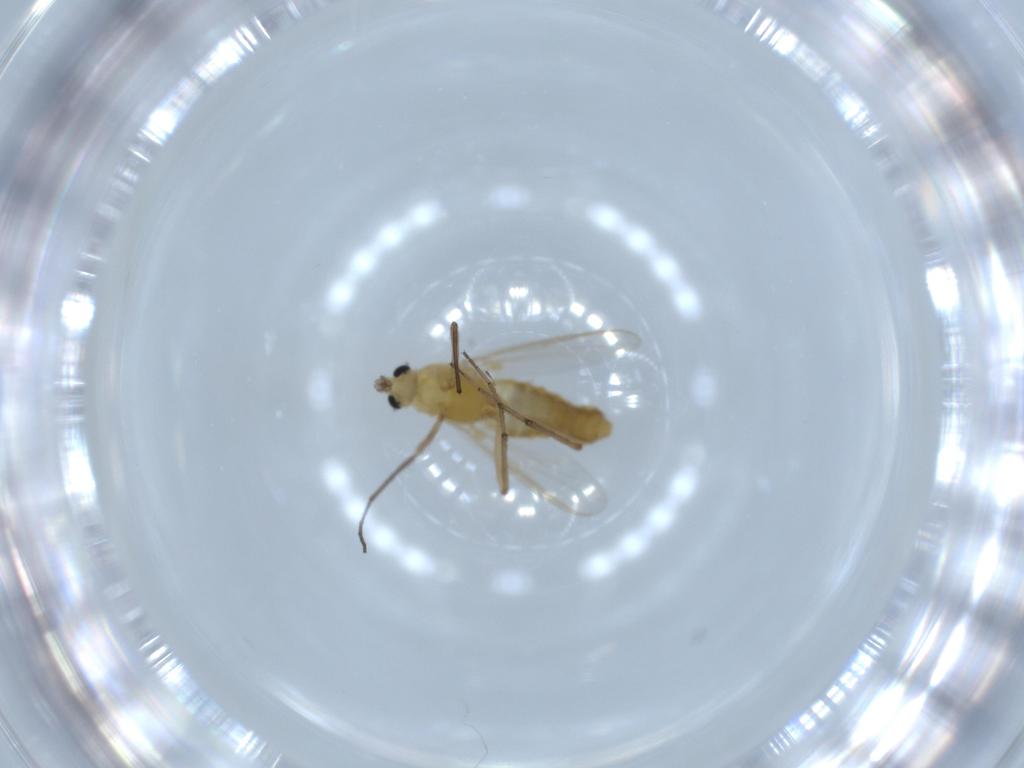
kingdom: Animalia
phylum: Arthropoda
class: Insecta
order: Diptera
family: Chironomidae
